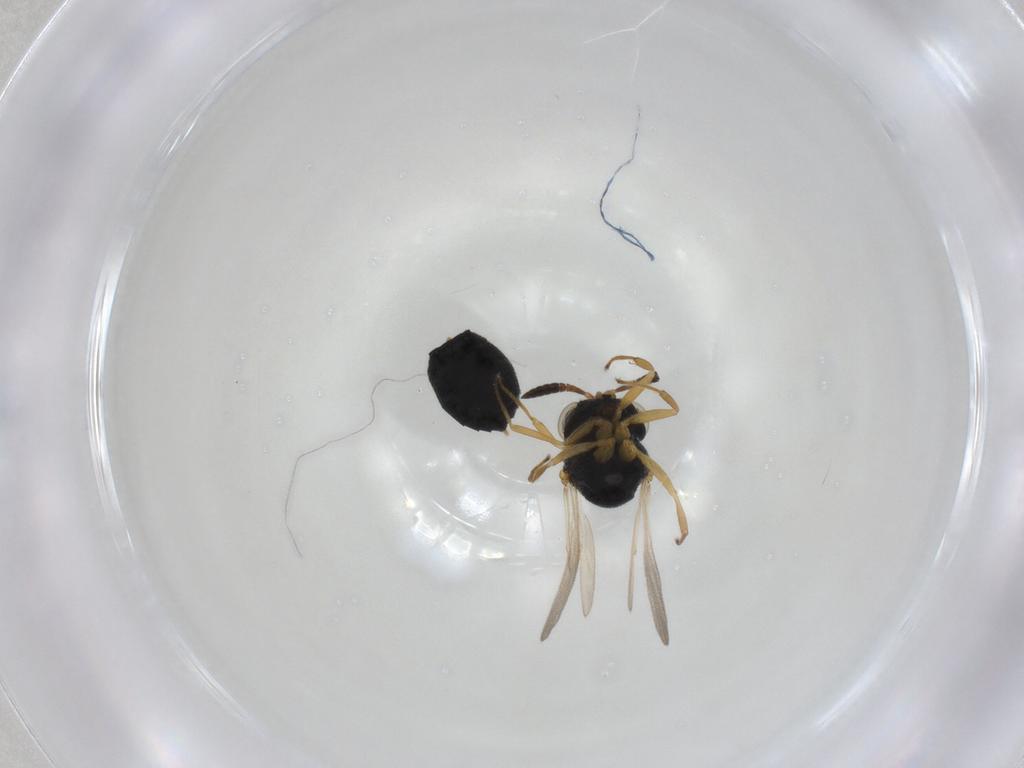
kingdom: Animalia
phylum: Arthropoda
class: Insecta
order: Hymenoptera
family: Scelionidae
